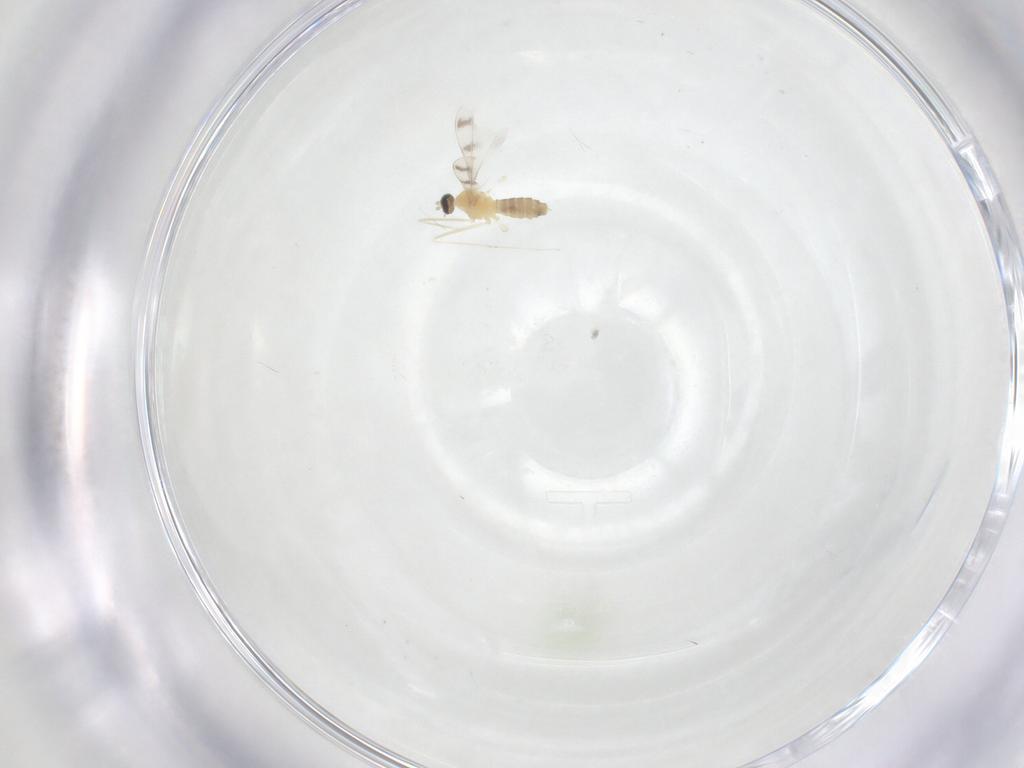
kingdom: Animalia
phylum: Arthropoda
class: Insecta
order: Diptera
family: Cecidomyiidae
